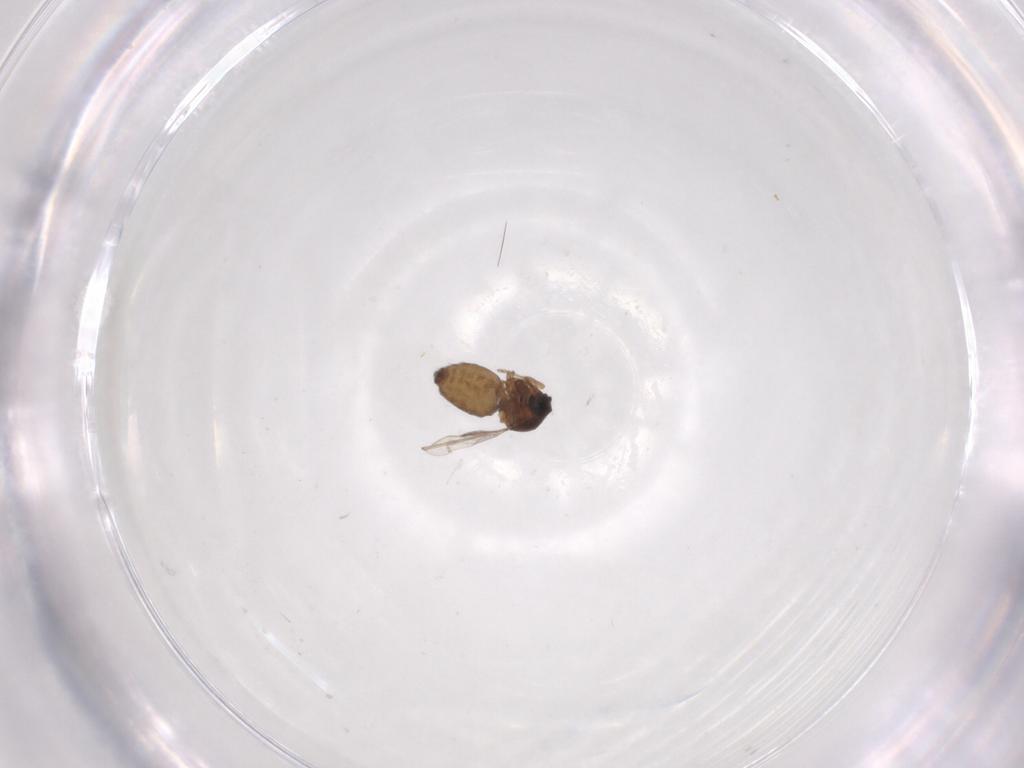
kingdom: Animalia
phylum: Arthropoda
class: Insecta
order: Diptera
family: Ceratopogonidae
